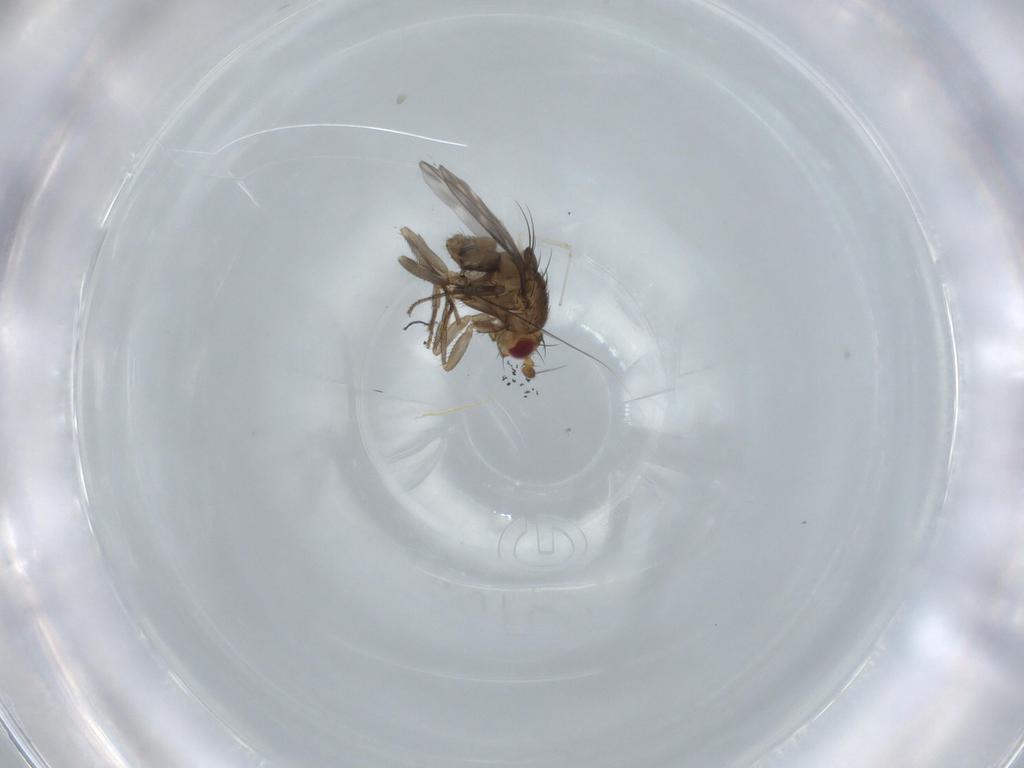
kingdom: Animalia
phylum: Arthropoda
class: Insecta
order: Diptera
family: Sphaeroceridae
